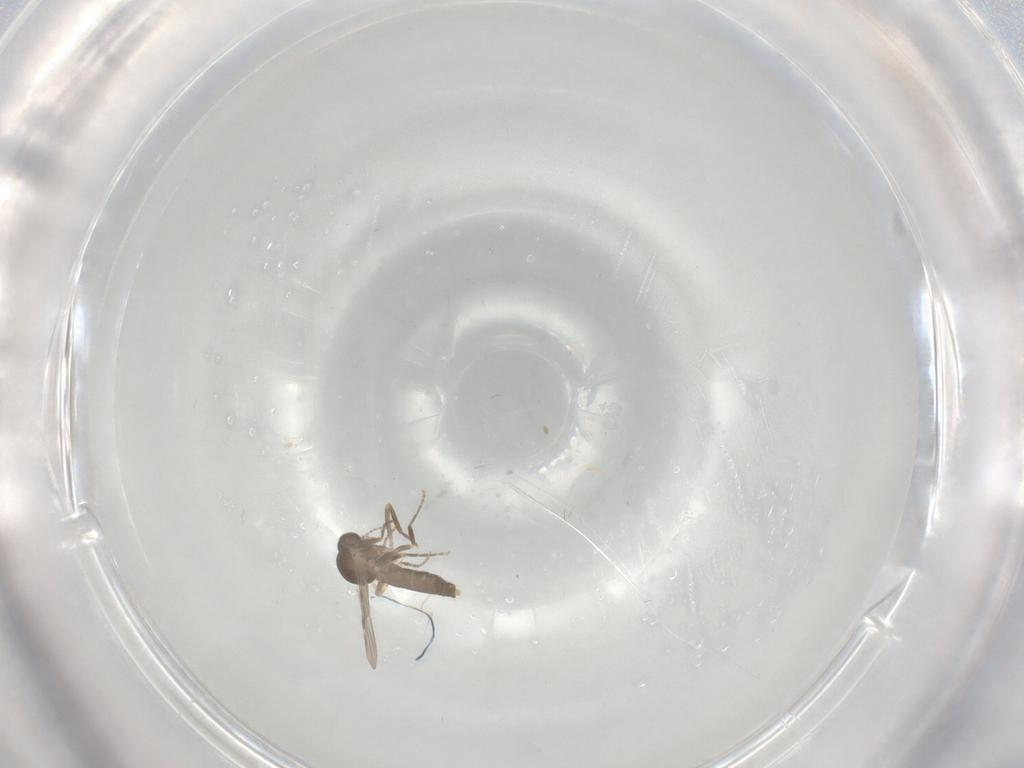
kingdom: Animalia
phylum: Arthropoda
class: Insecta
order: Diptera
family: Ceratopogonidae
